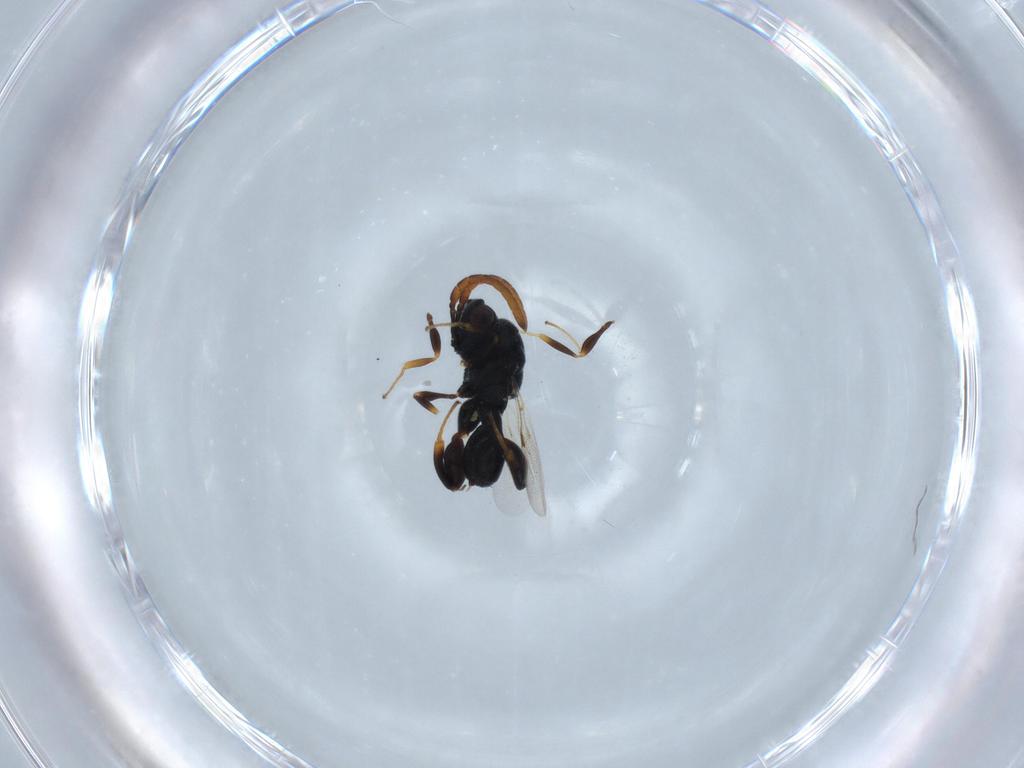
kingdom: Animalia
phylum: Arthropoda
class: Insecta
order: Hymenoptera
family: Chalcididae
